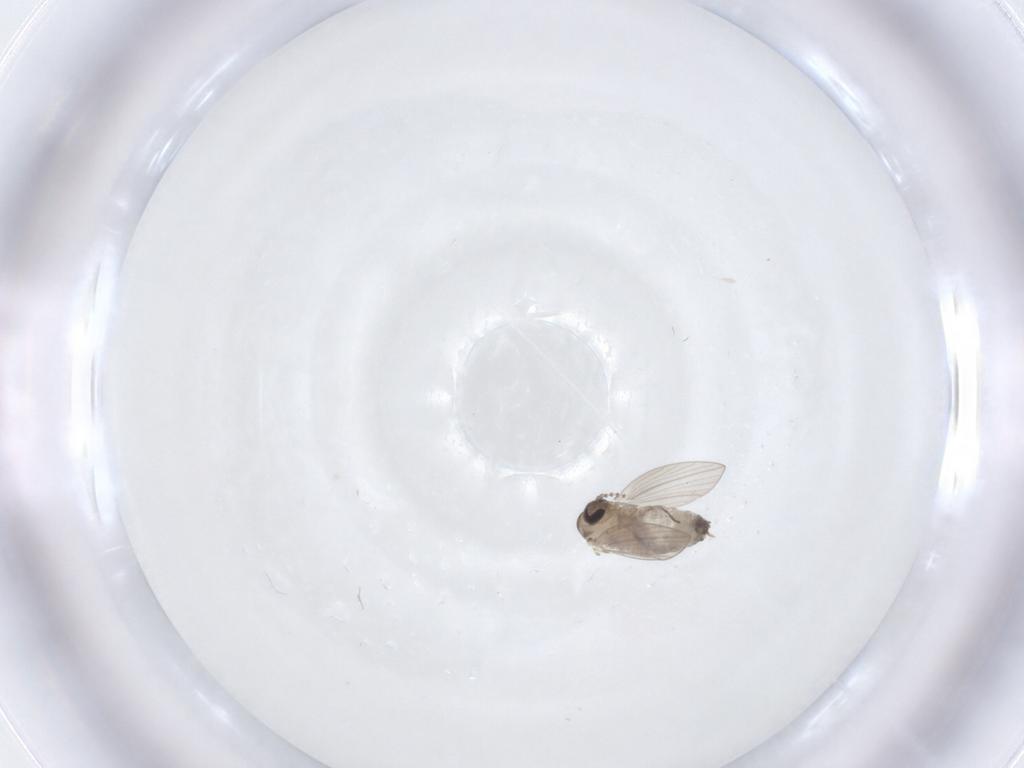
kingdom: Animalia
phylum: Arthropoda
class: Insecta
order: Diptera
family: Psychodidae
